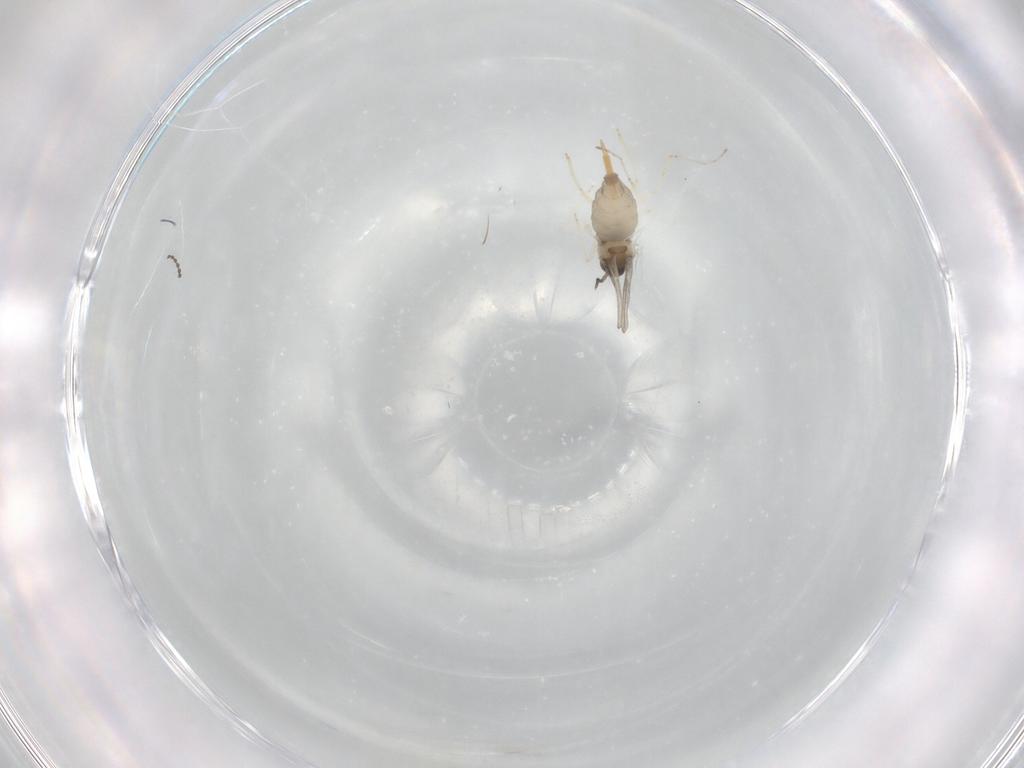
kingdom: Animalia
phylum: Arthropoda
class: Insecta
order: Diptera
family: Cecidomyiidae
